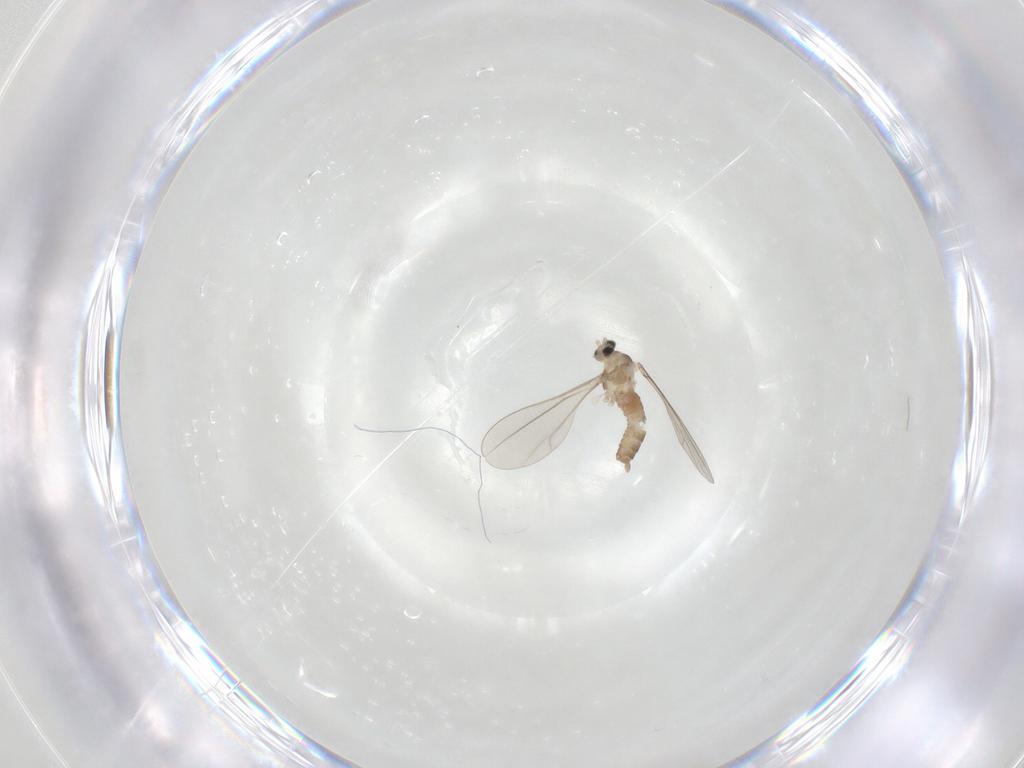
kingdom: Animalia
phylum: Arthropoda
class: Insecta
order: Diptera
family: Cecidomyiidae
